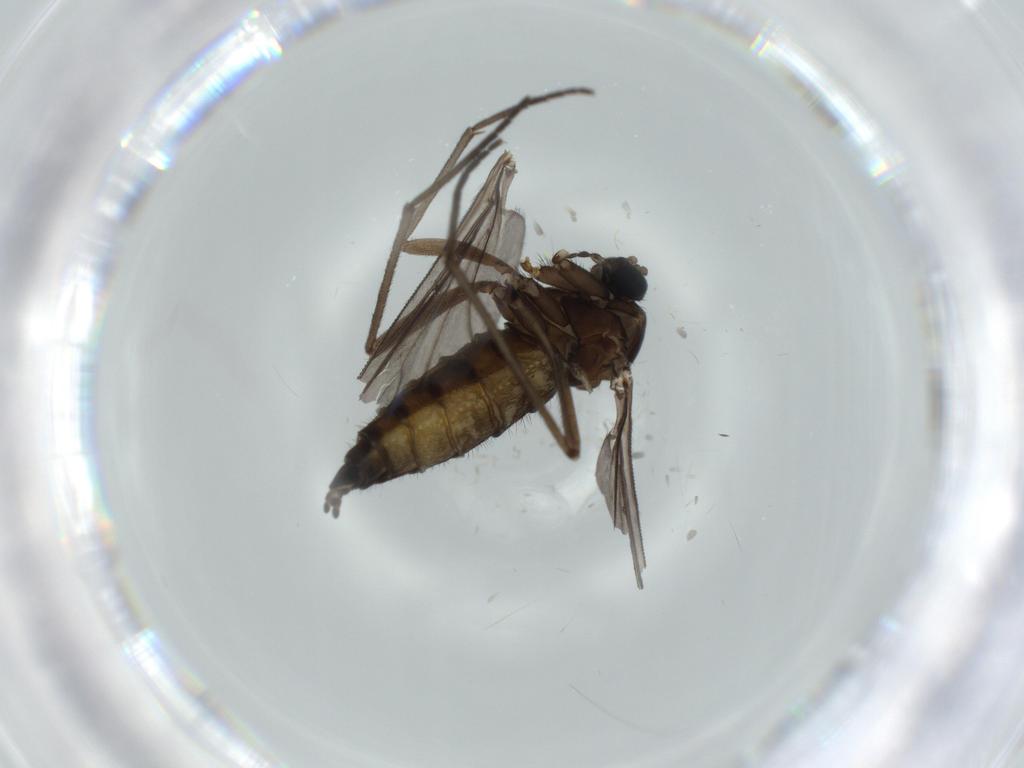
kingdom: Animalia
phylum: Arthropoda
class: Insecta
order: Diptera
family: Sciaridae
